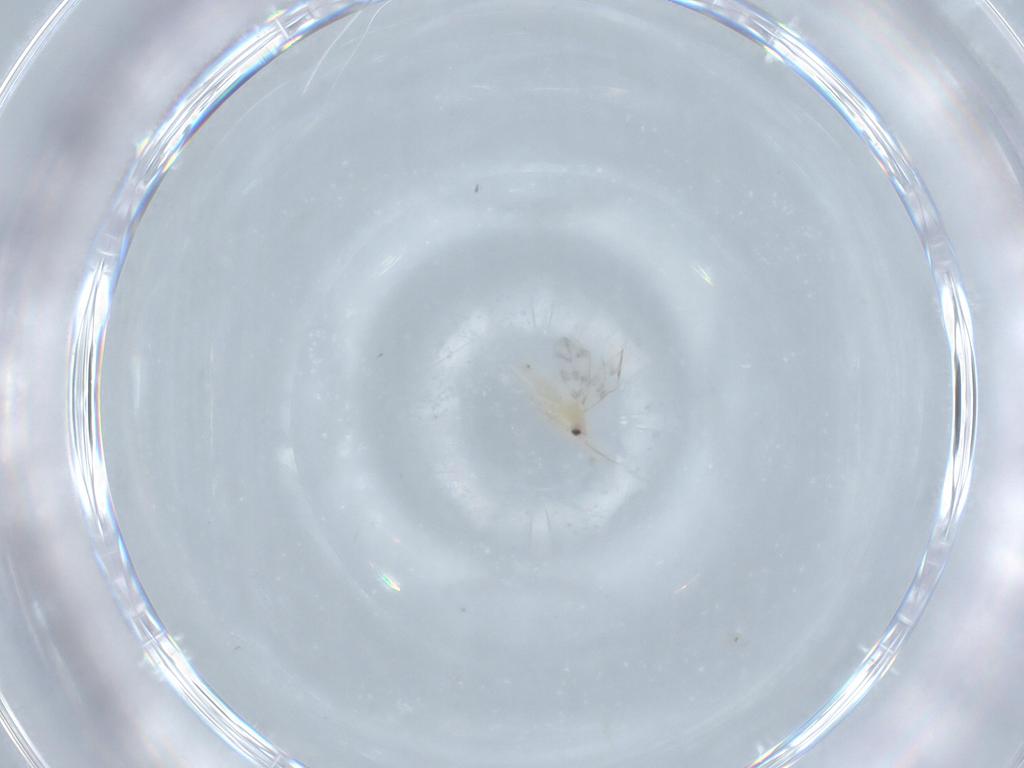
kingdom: Animalia
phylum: Arthropoda
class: Insecta
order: Hemiptera
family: Aleyrodidae
